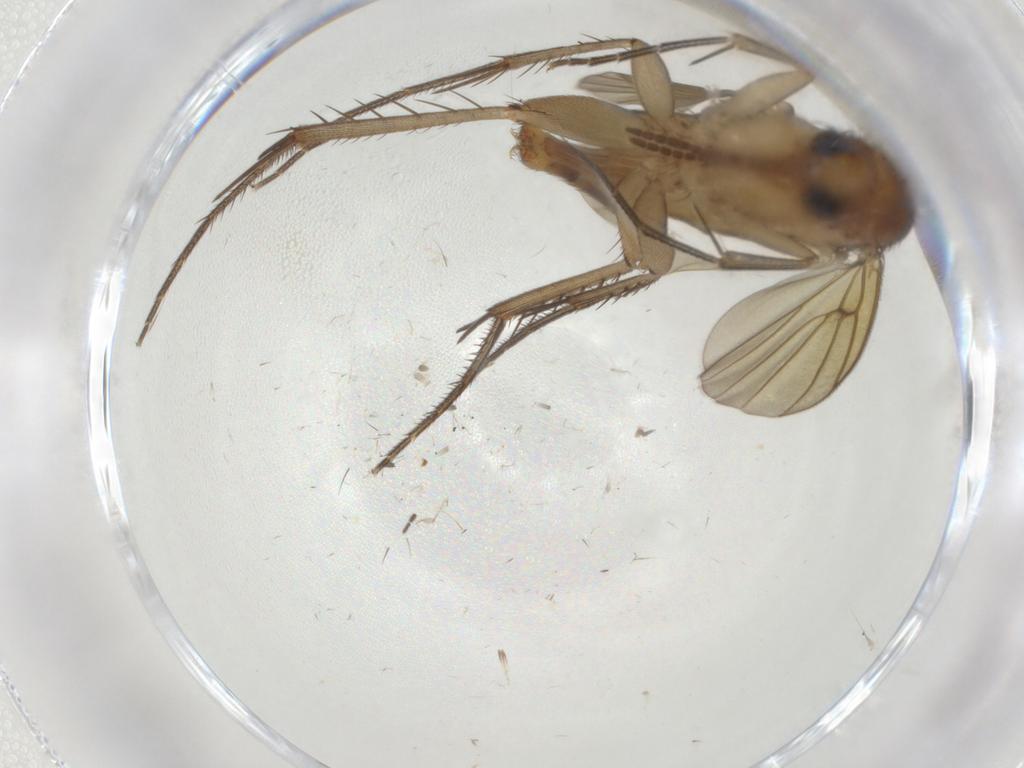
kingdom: Animalia
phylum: Arthropoda
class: Insecta
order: Diptera
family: Mycetophilidae
